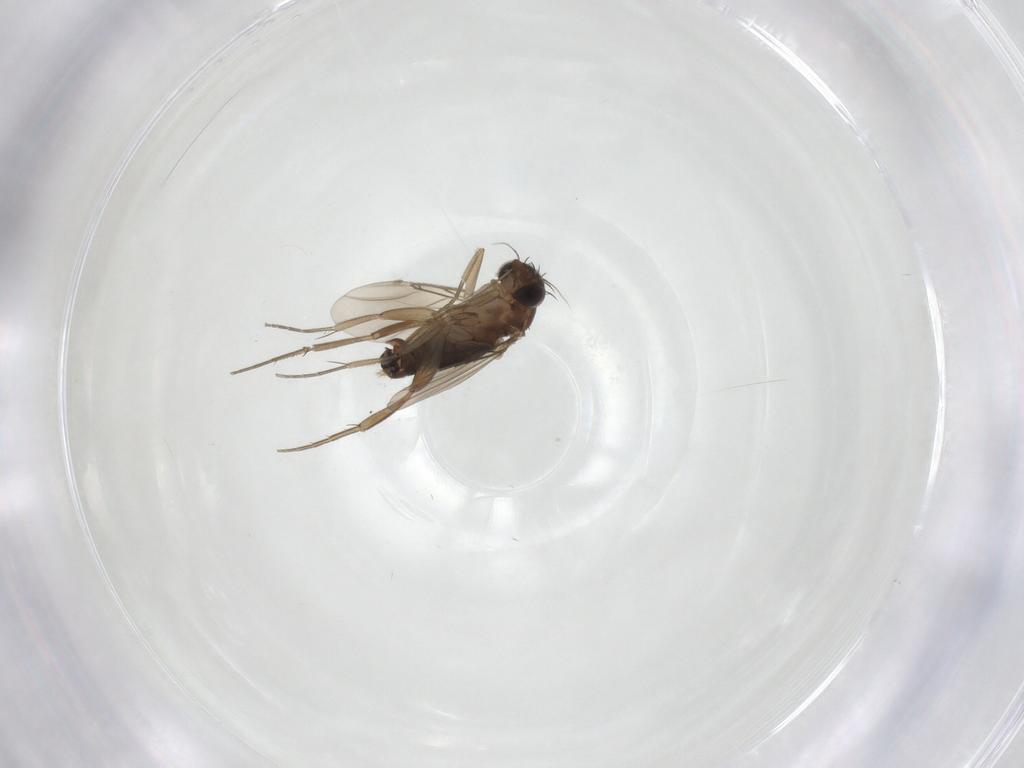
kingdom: Animalia
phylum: Arthropoda
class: Insecta
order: Diptera
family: Phoridae
